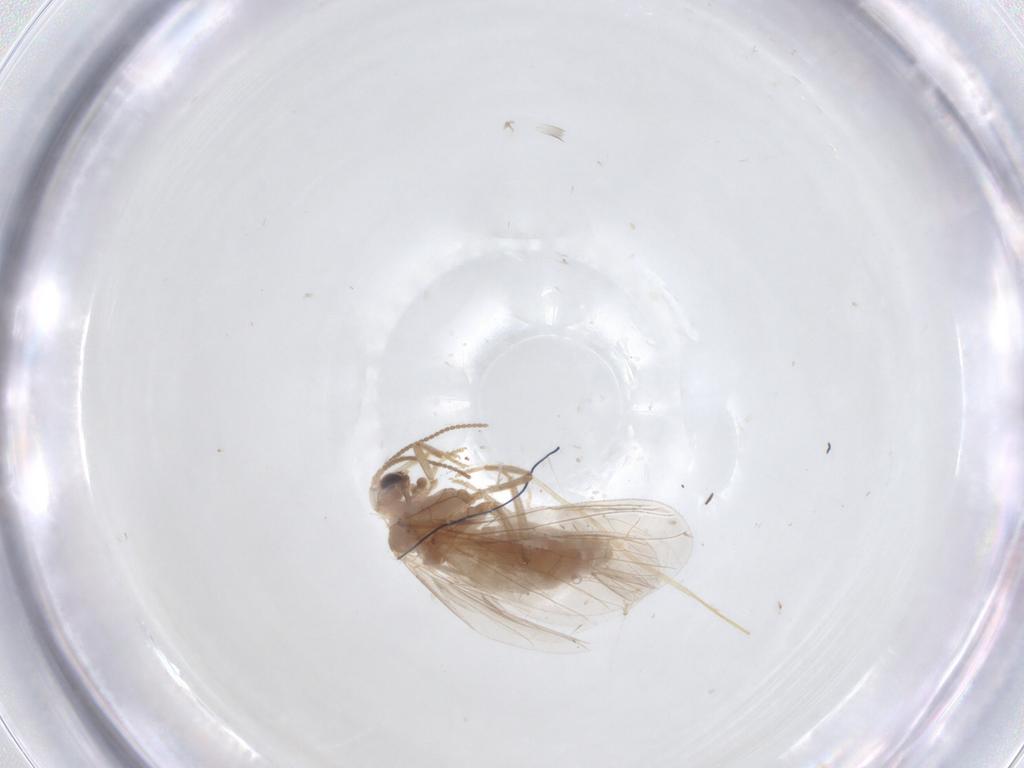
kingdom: Animalia
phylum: Arthropoda
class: Insecta
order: Neuroptera
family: Coniopterygidae
